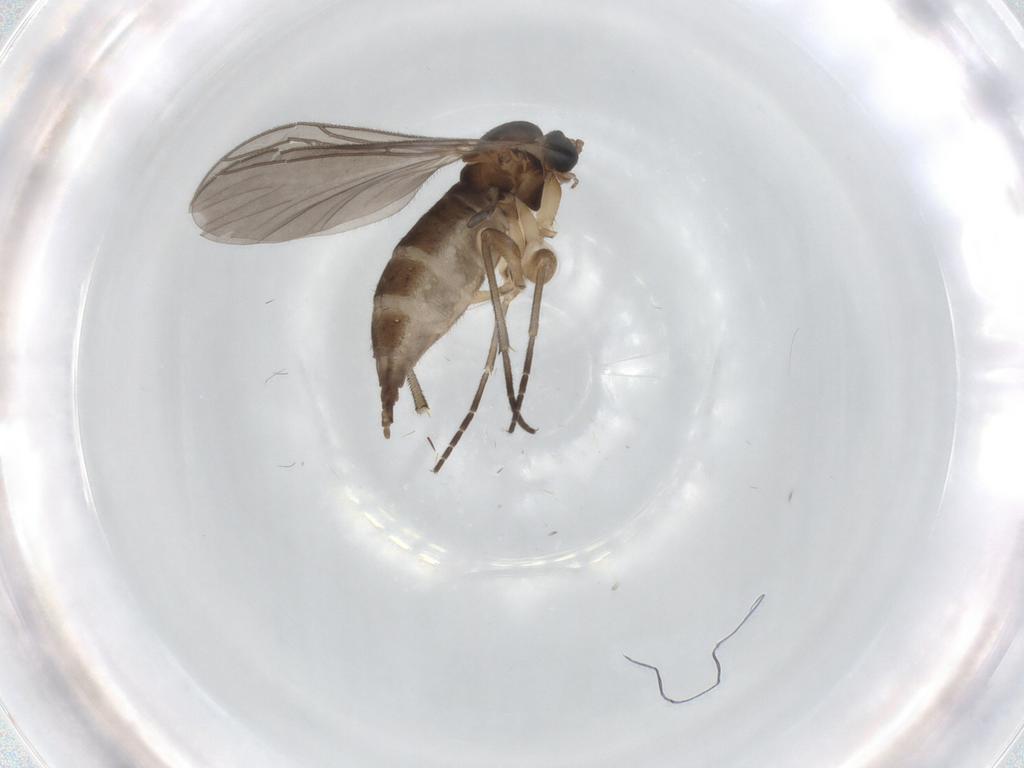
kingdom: Animalia
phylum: Arthropoda
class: Insecta
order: Diptera
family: Sciaridae
